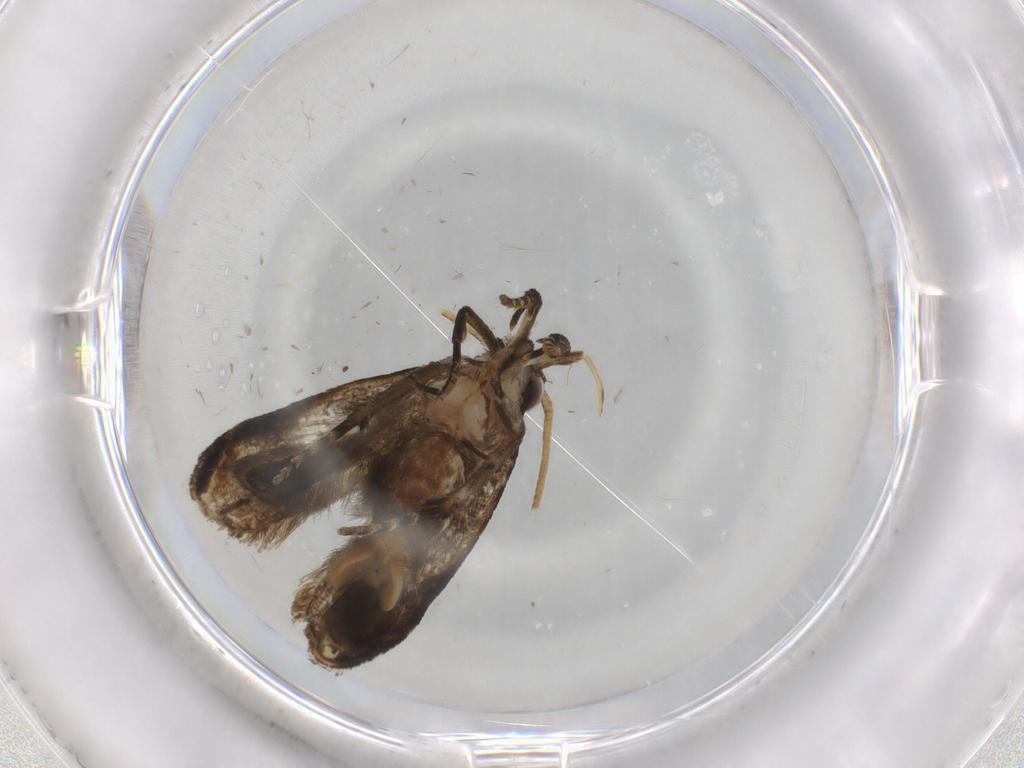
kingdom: Animalia
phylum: Arthropoda
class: Insecta
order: Lepidoptera
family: Gelechiidae
